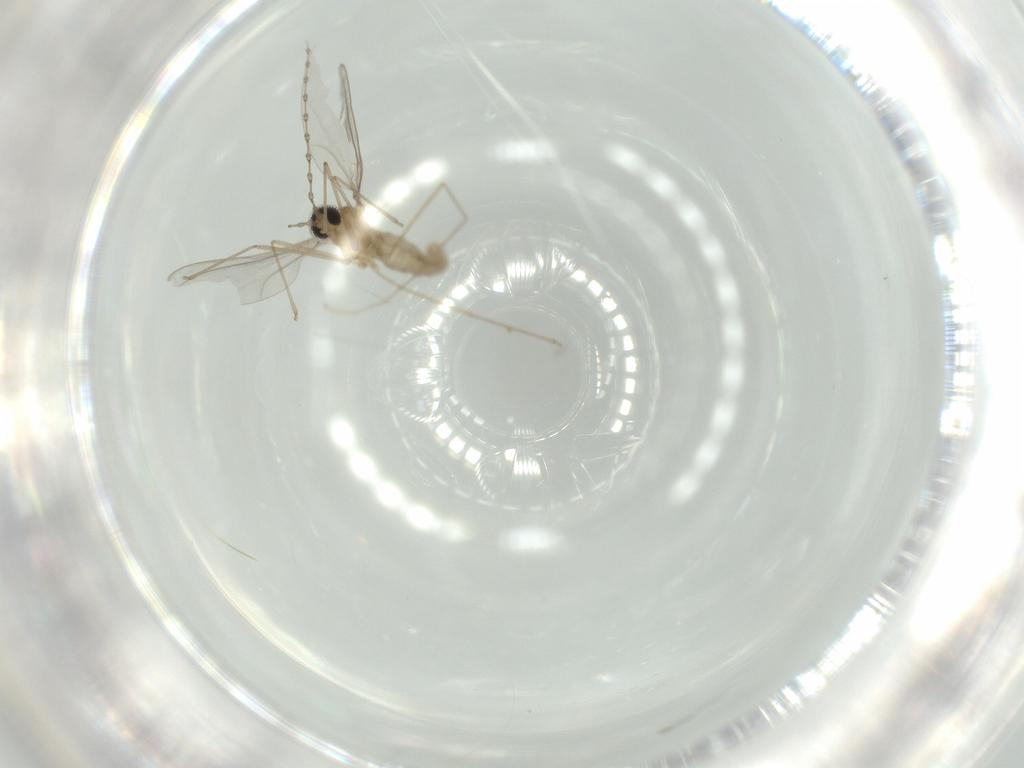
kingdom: Animalia
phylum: Arthropoda
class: Insecta
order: Diptera
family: Cecidomyiidae
